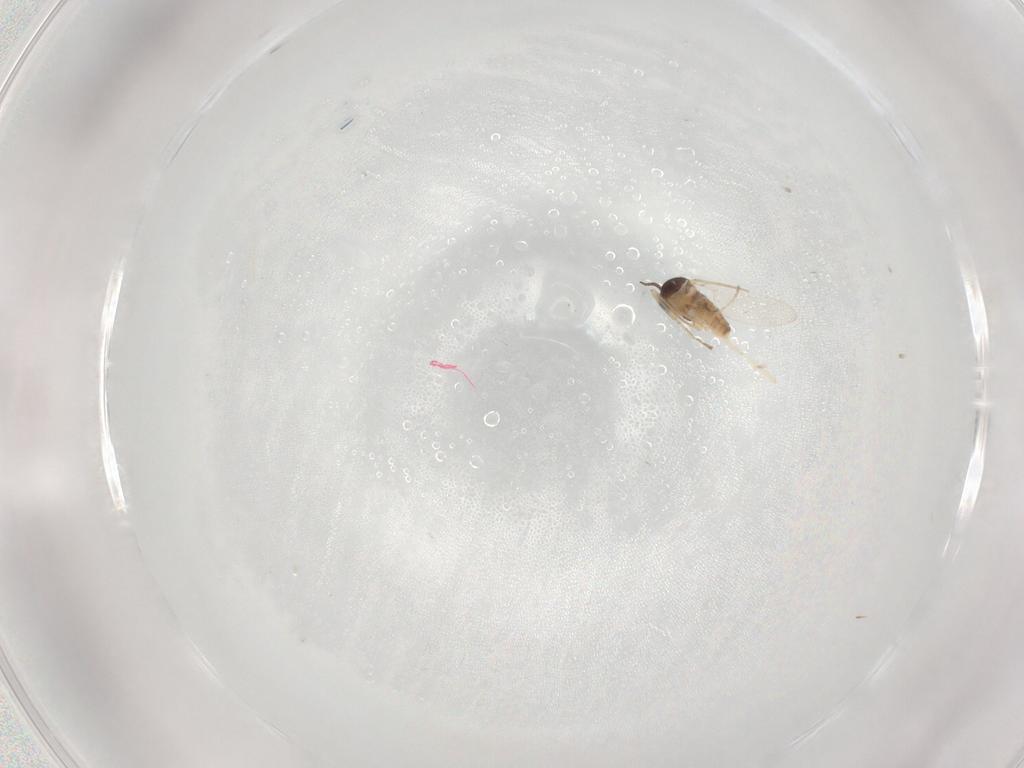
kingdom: Animalia
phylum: Arthropoda
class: Insecta
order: Diptera
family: Cecidomyiidae
